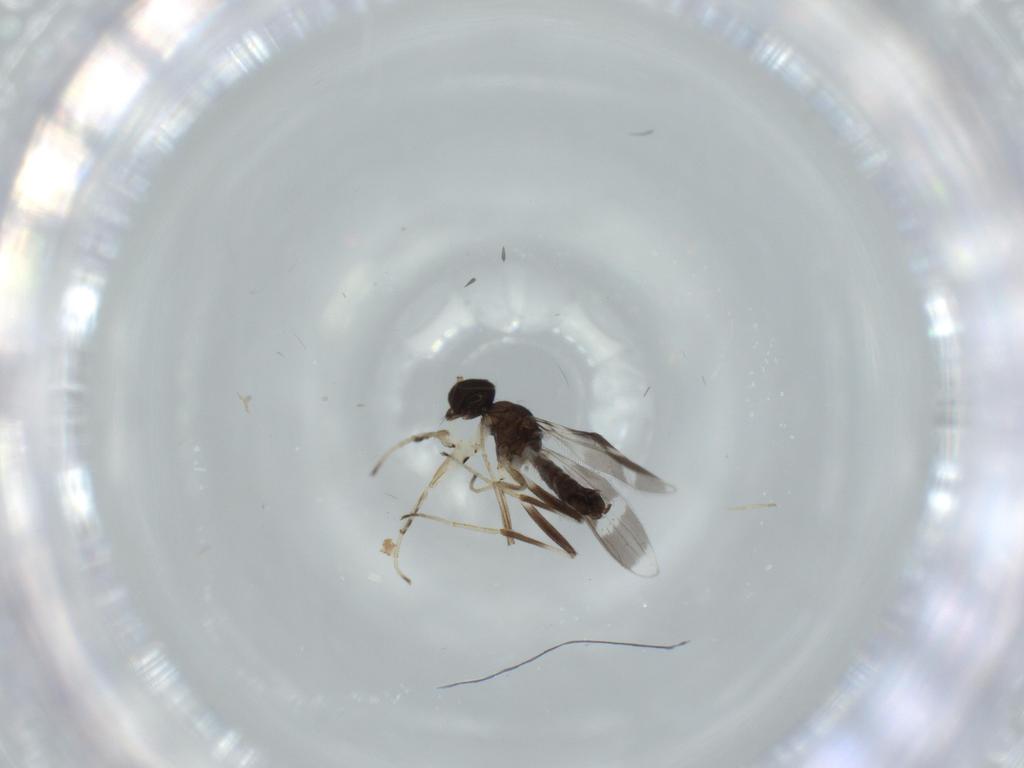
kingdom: Animalia
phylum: Arthropoda
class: Insecta
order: Diptera
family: Hybotidae
